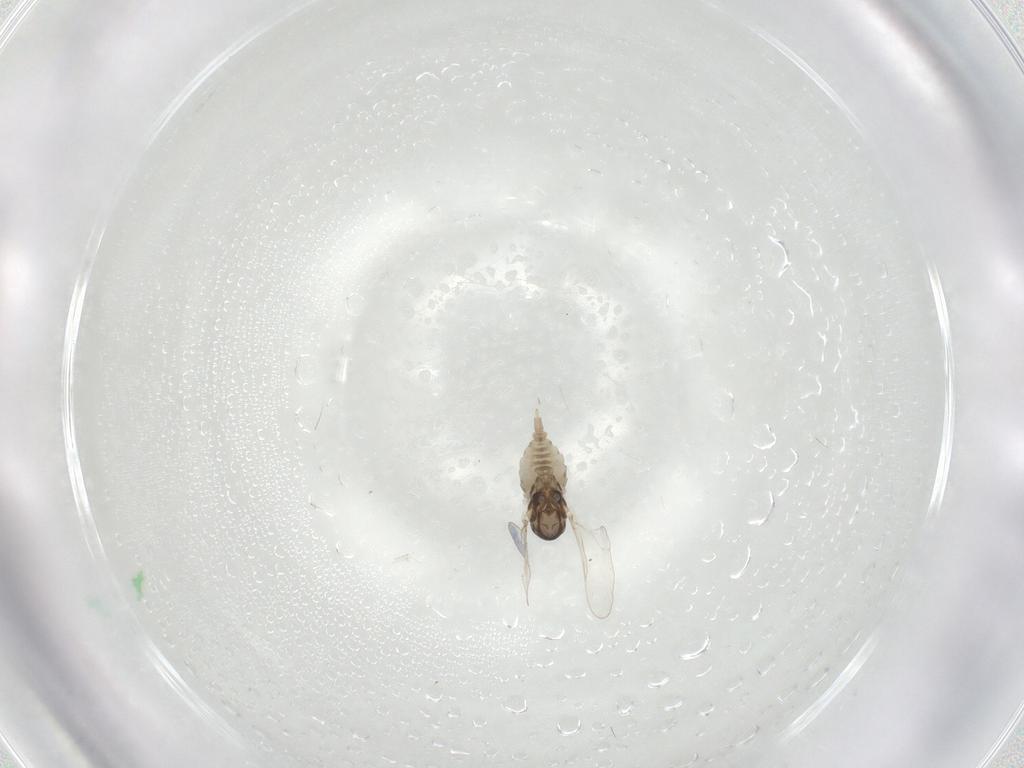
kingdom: Animalia
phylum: Arthropoda
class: Insecta
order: Diptera
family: Cecidomyiidae
